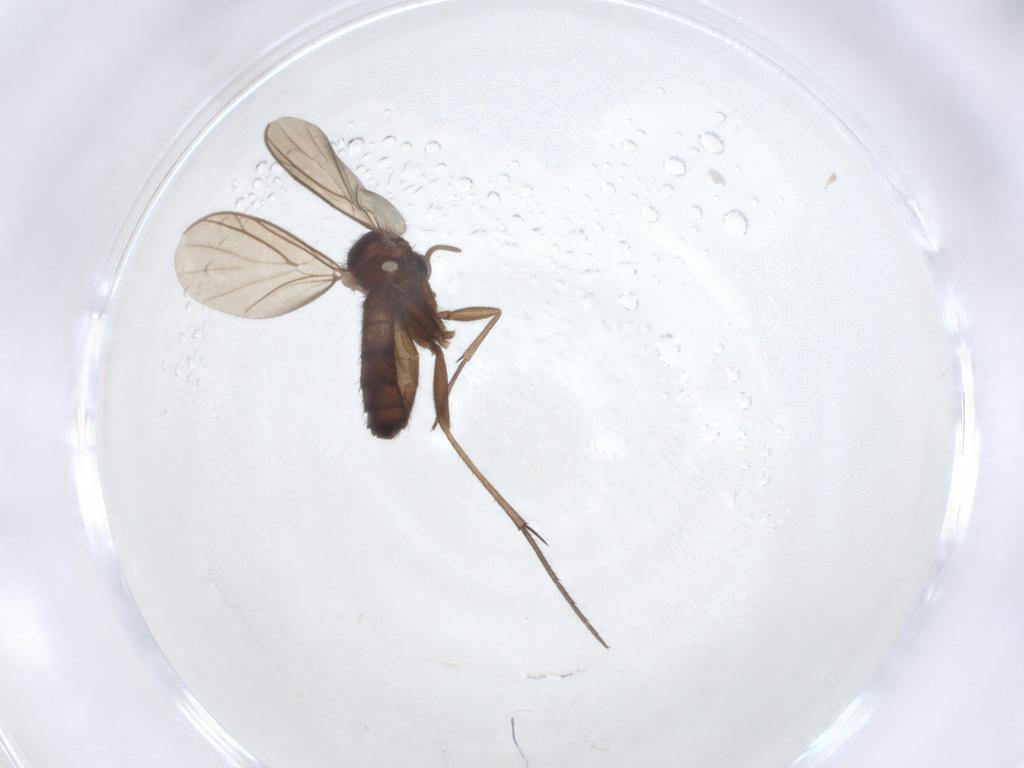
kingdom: Animalia
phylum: Arthropoda
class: Insecta
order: Diptera
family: Keroplatidae
